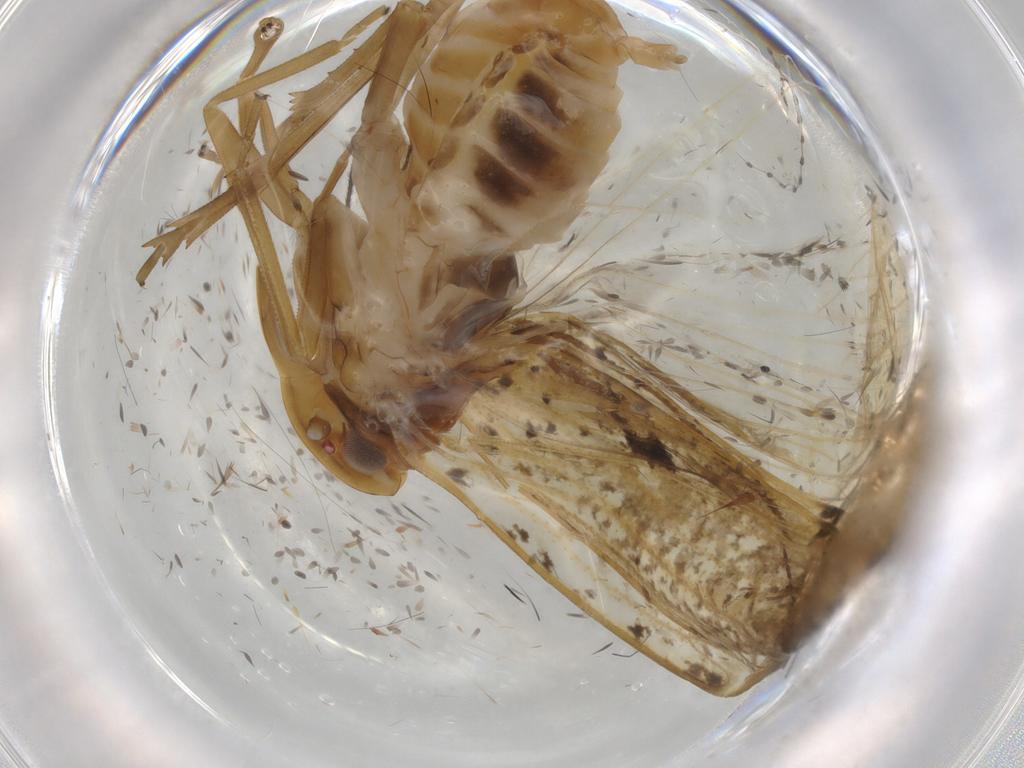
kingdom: Animalia
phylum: Arthropoda
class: Insecta
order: Hemiptera
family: Cixiidae
